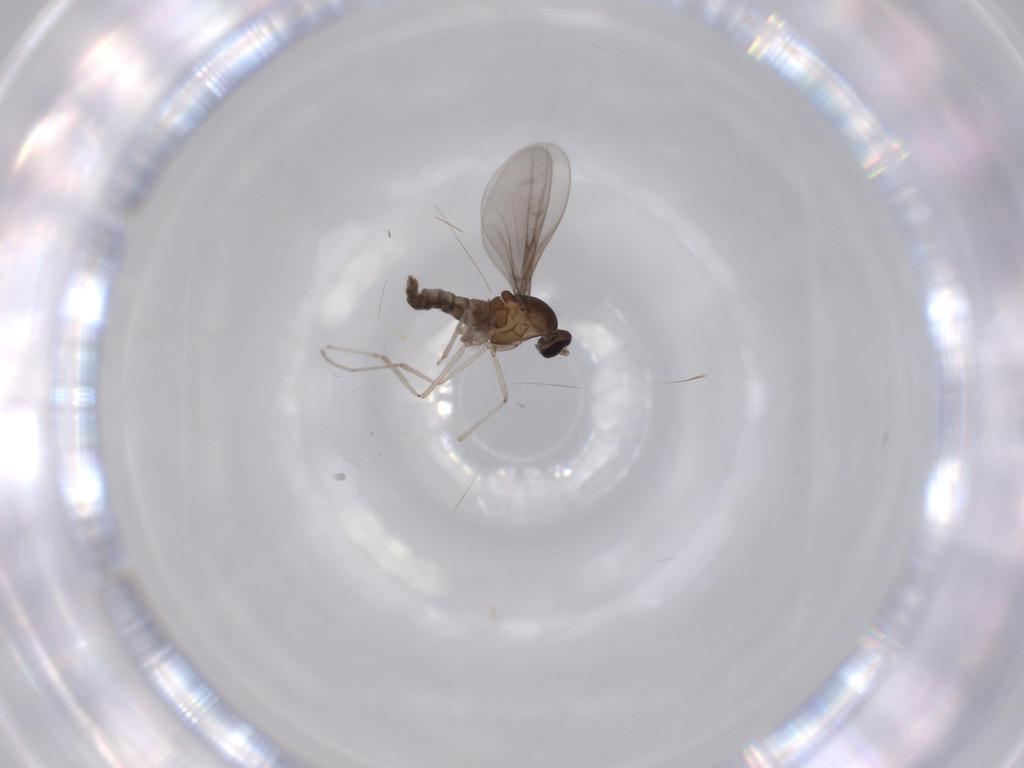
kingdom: Animalia
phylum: Arthropoda
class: Insecta
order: Diptera
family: Cecidomyiidae
